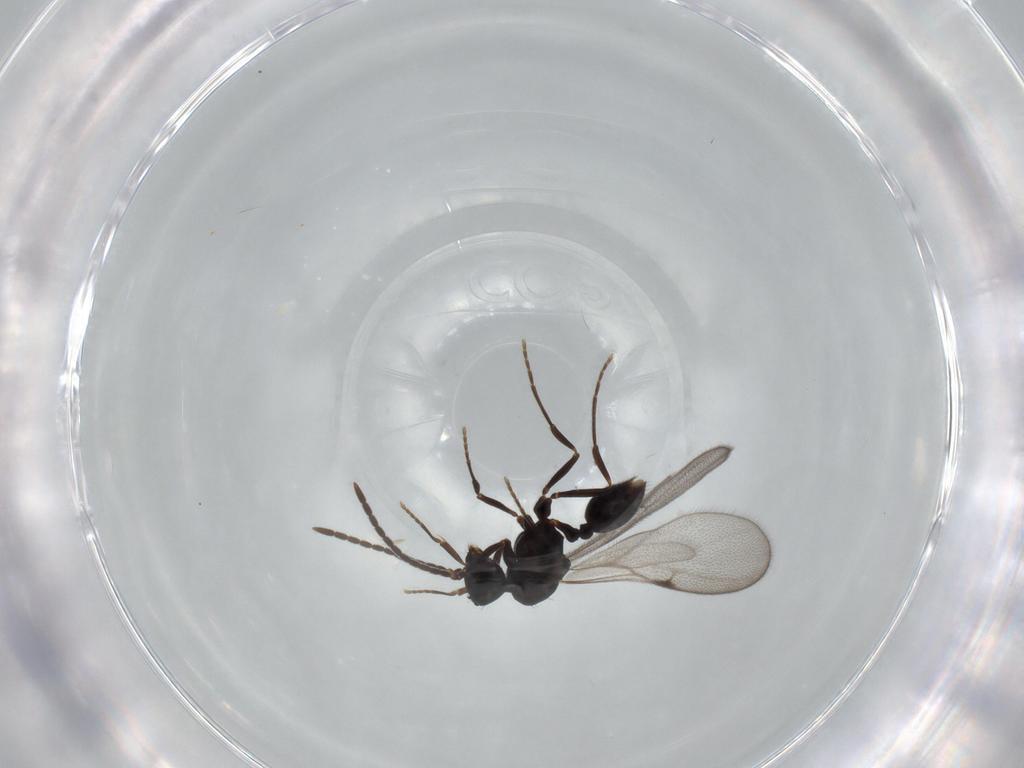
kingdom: Animalia
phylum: Arthropoda
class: Insecta
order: Hymenoptera
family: Formicidae
